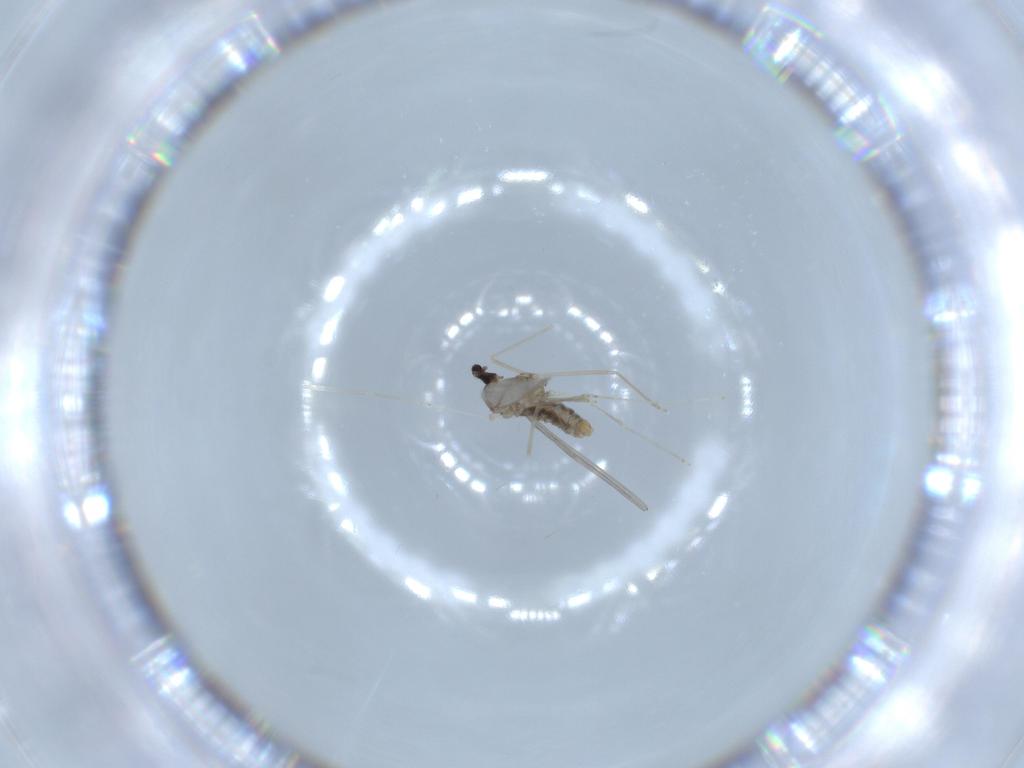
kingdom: Animalia
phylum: Arthropoda
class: Insecta
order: Diptera
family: Cecidomyiidae
